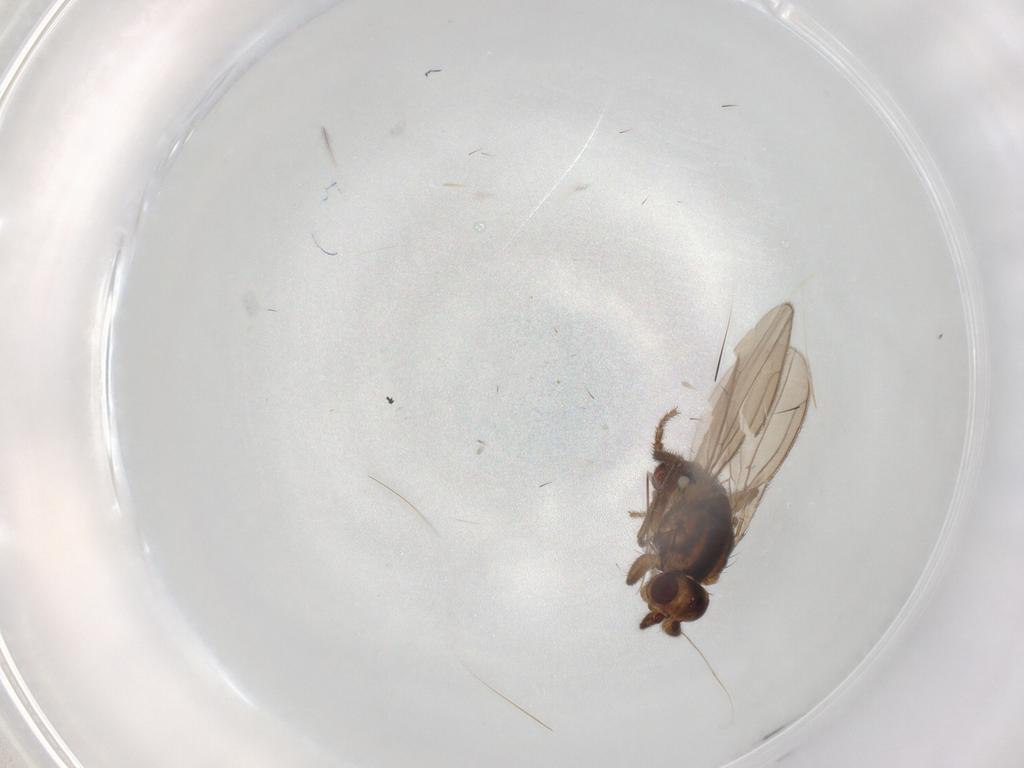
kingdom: Animalia
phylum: Arthropoda
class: Insecta
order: Diptera
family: Sphaeroceridae
